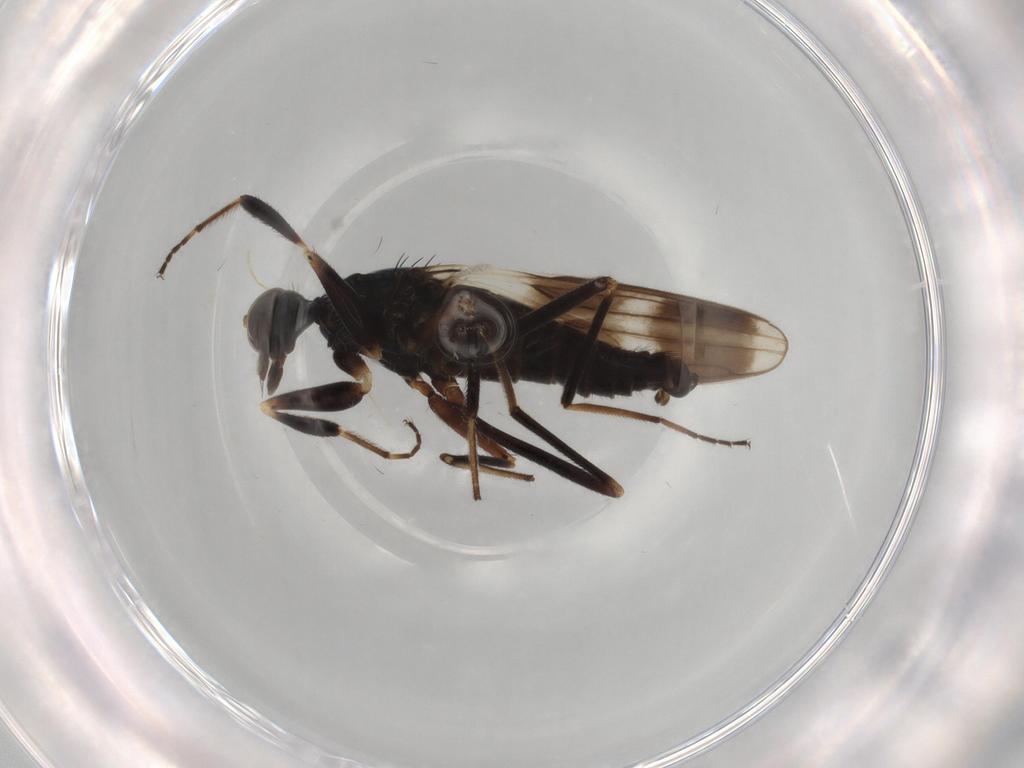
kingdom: Animalia
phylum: Arthropoda
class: Insecta
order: Diptera
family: Dolichopodidae
